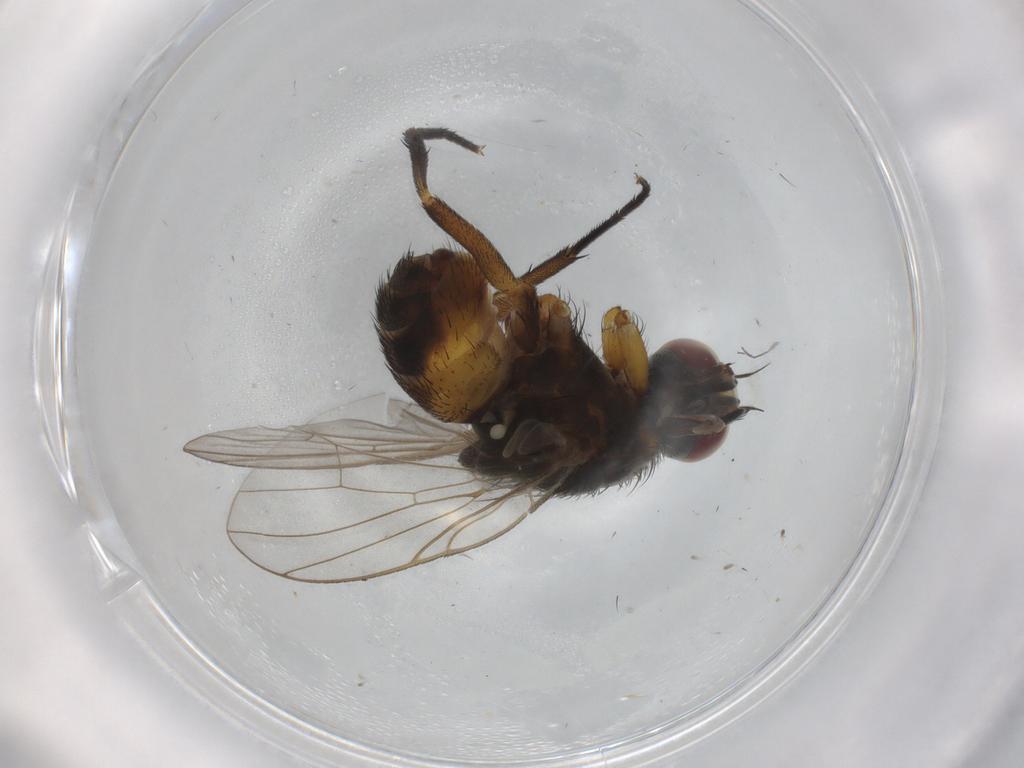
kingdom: Animalia
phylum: Arthropoda
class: Insecta
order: Diptera
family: Muscidae
